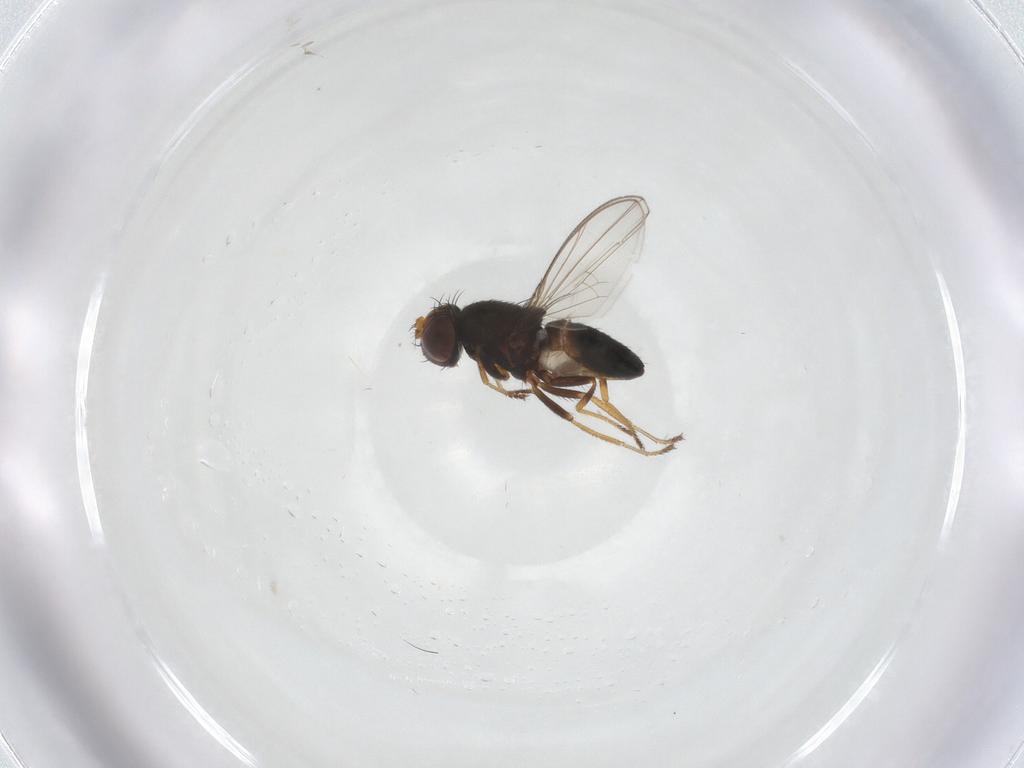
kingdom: Animalia
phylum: Arthropoda
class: Insecta
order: Diptera
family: Ephydridae
